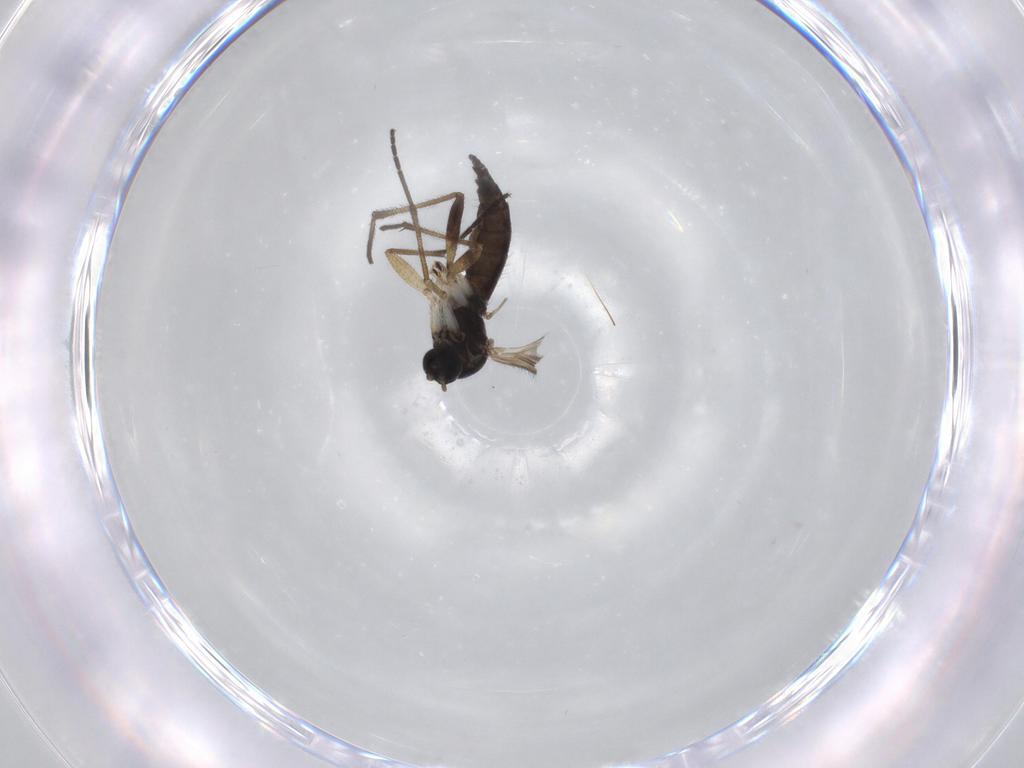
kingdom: Animalia
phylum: Arthropoda
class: Insecta
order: Diptera
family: Sciaridae
